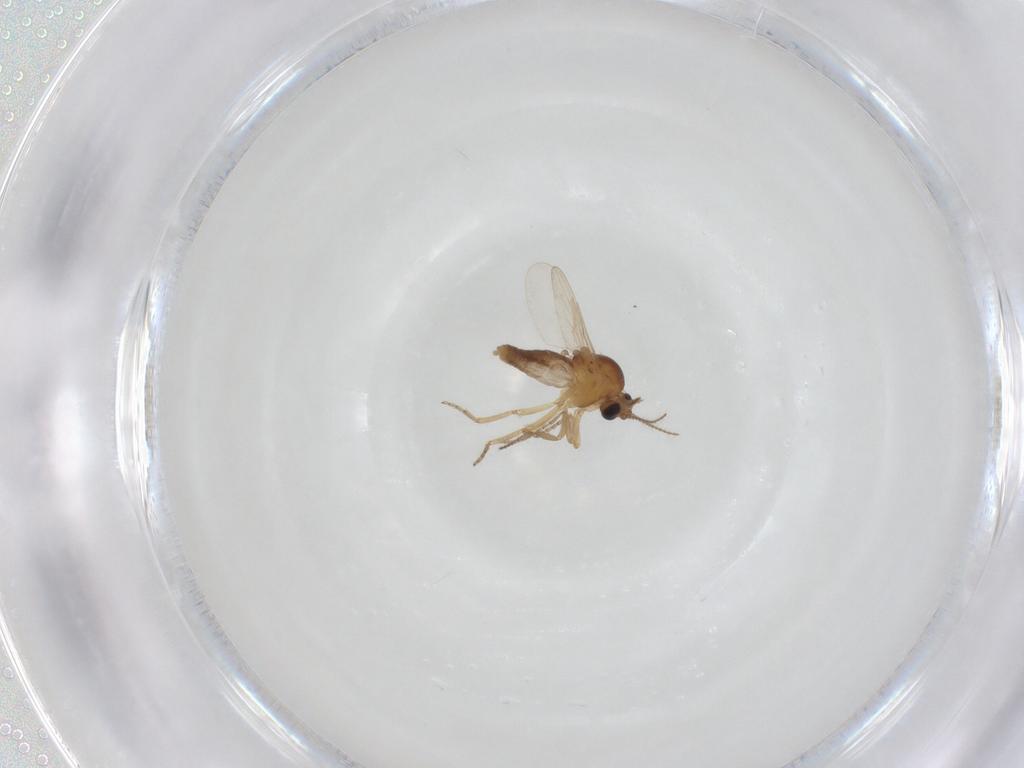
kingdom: Animalia
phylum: Arthropoda
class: Insecta
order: Diptera
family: Ceratopogonidae
